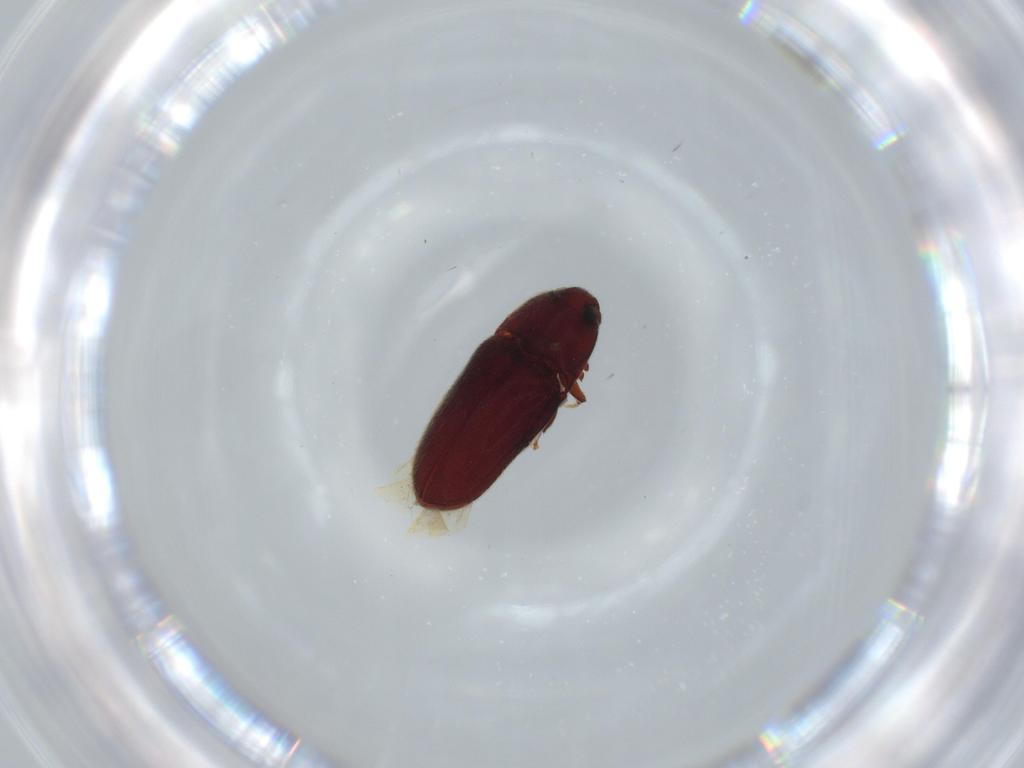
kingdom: Animalia
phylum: Arthropoda
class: Insecta
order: Coleoptera
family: Throscidae
